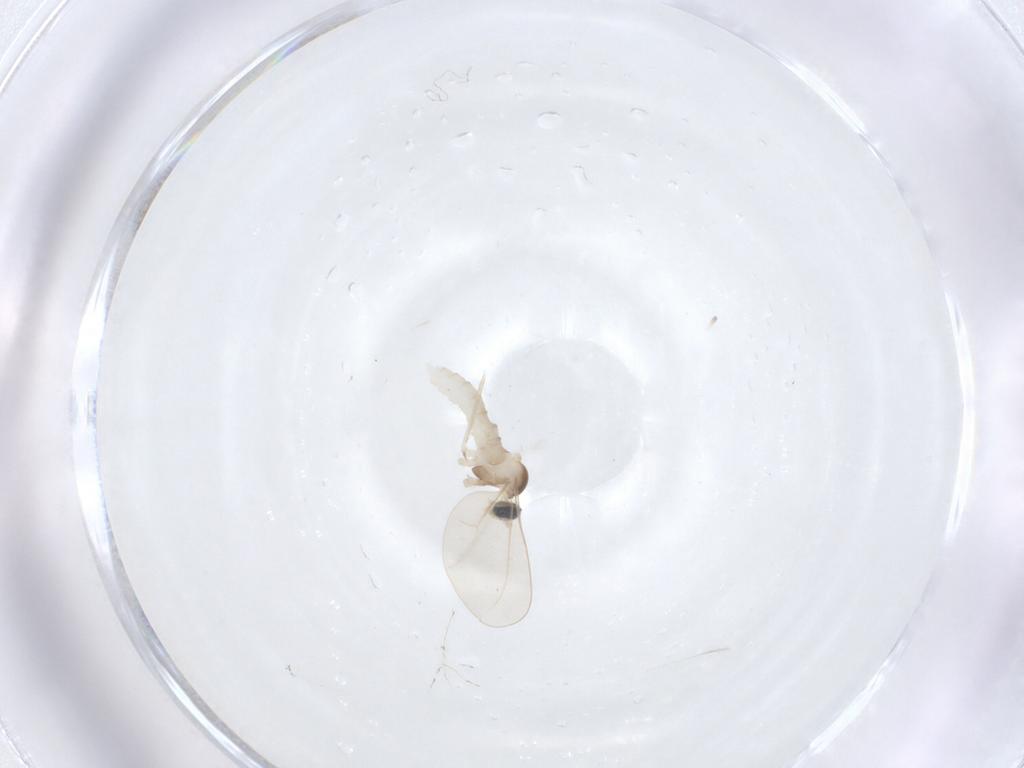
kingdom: Animalia
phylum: Arthropoda
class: Insecta
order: Diptera
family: Cecidomyiidae
